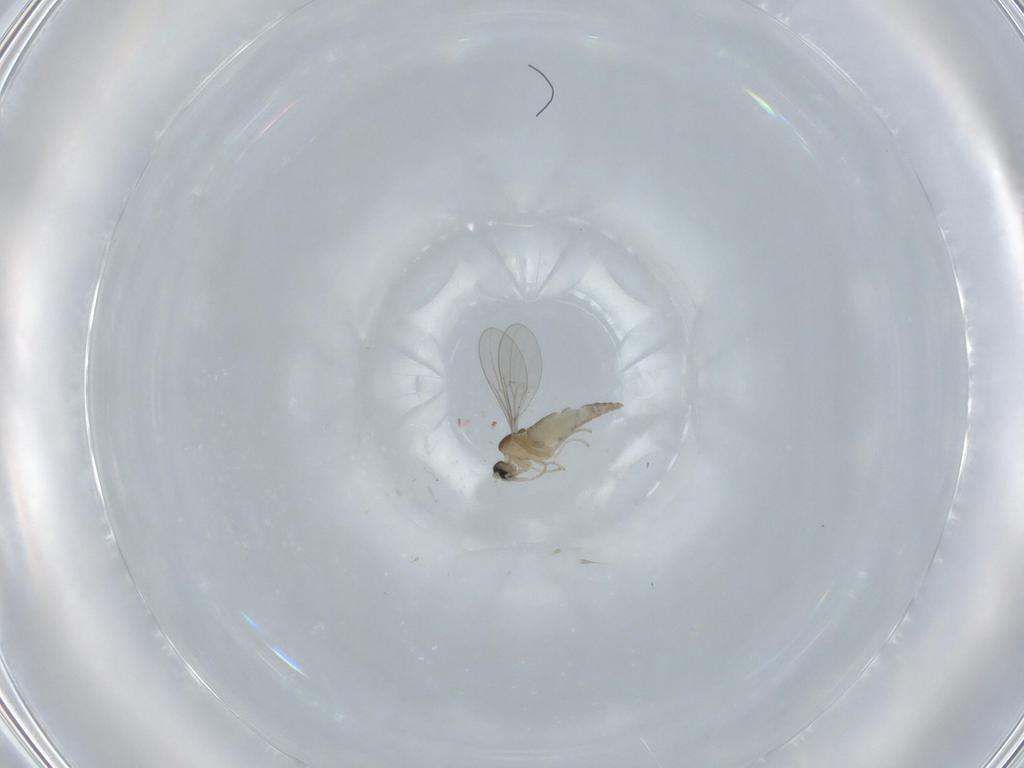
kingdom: Animalia
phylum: Arthropoda
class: Insecta
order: Diptera
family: Cecidomyiidae
